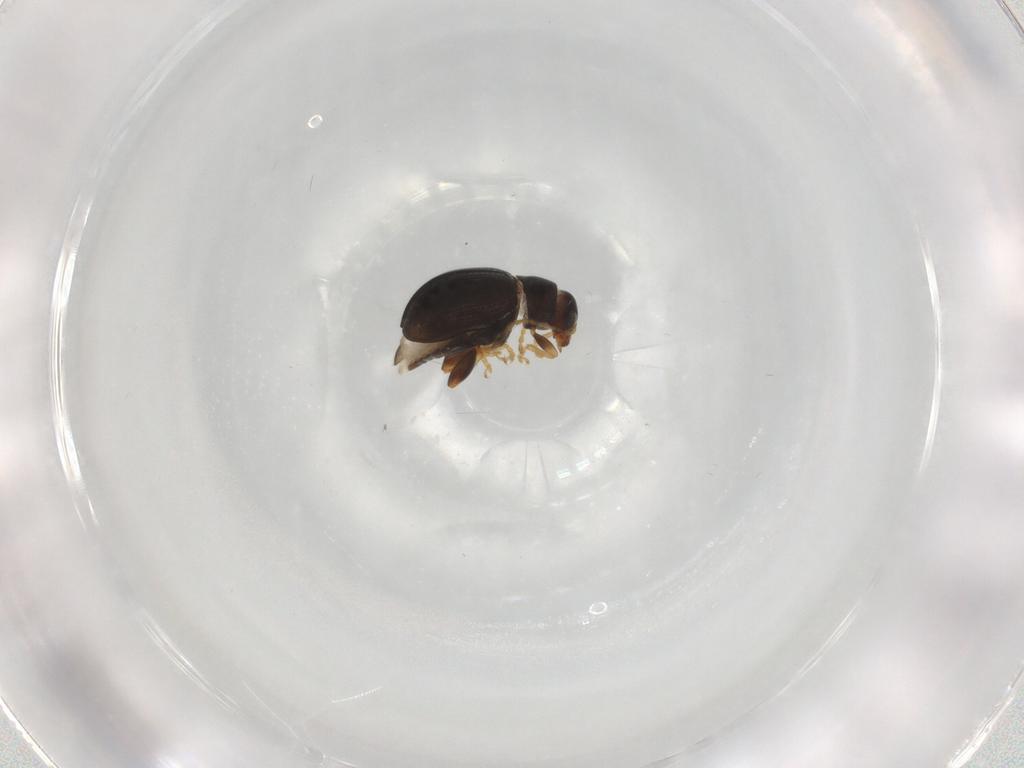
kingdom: Animalia
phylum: Arthropoda
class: Insecta
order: Coleoptera
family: Chrysomelidae
